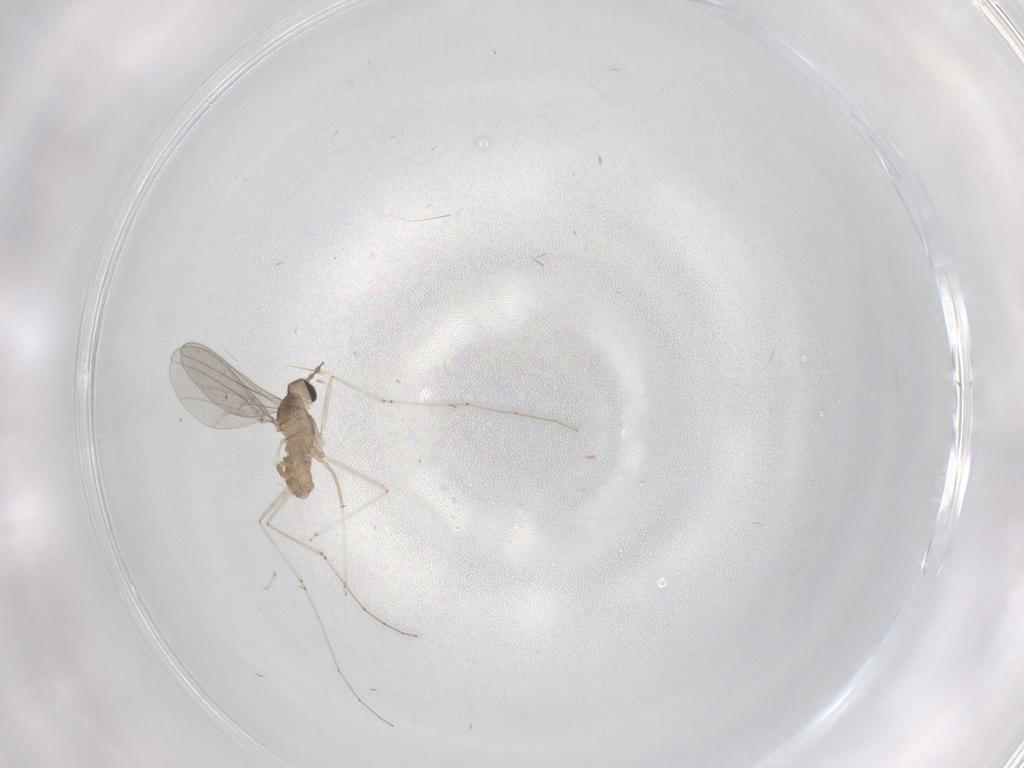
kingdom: Animalia
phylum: Arthropoda
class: Insecta
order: Diptera
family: Cecidomyiidae
